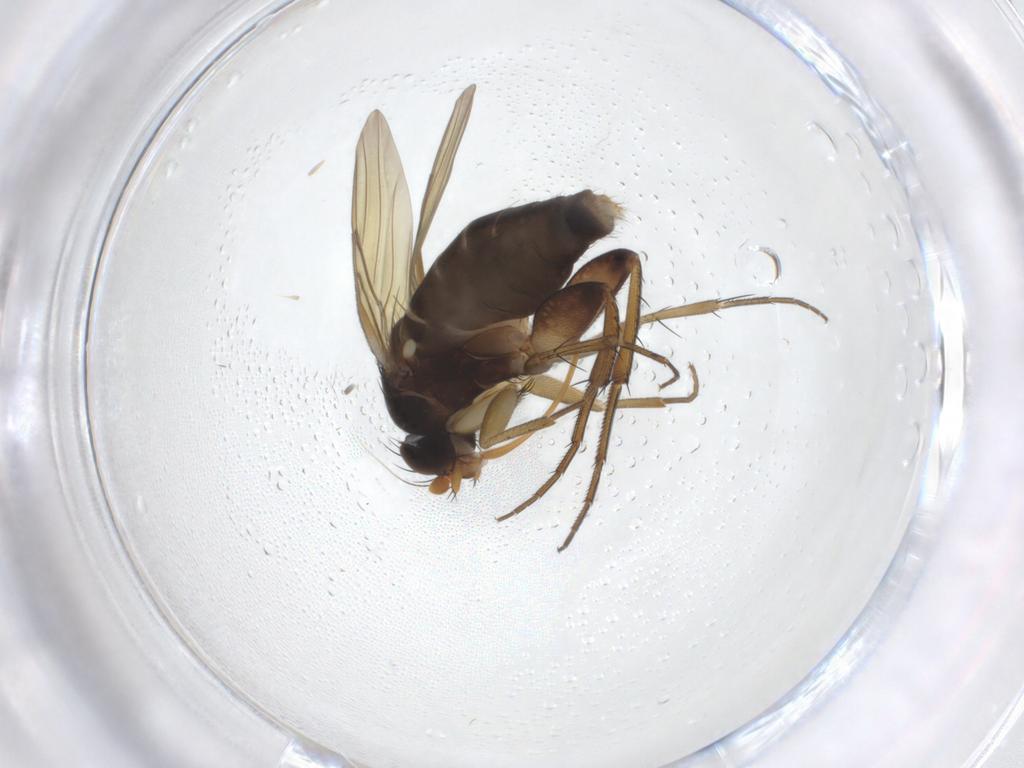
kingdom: Animalia
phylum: Arthropoda
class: Insecta
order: Diptera
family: Phoridae
